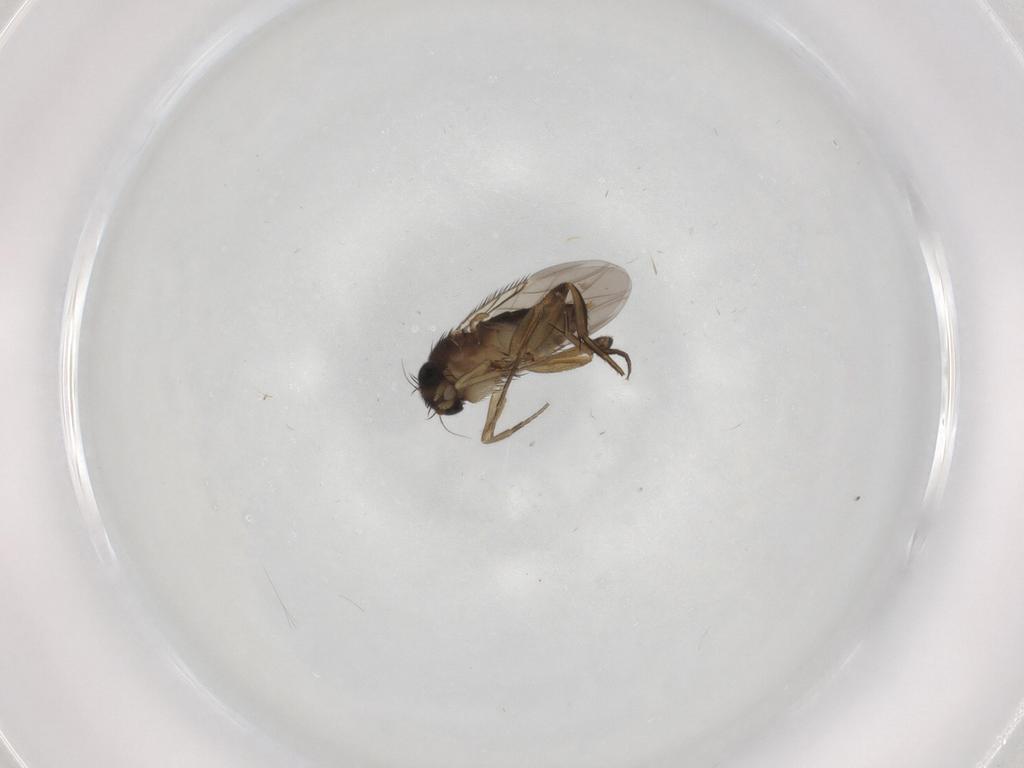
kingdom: Animalia
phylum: Arthropoda
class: Insecta
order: Diptera
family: Phoridae
